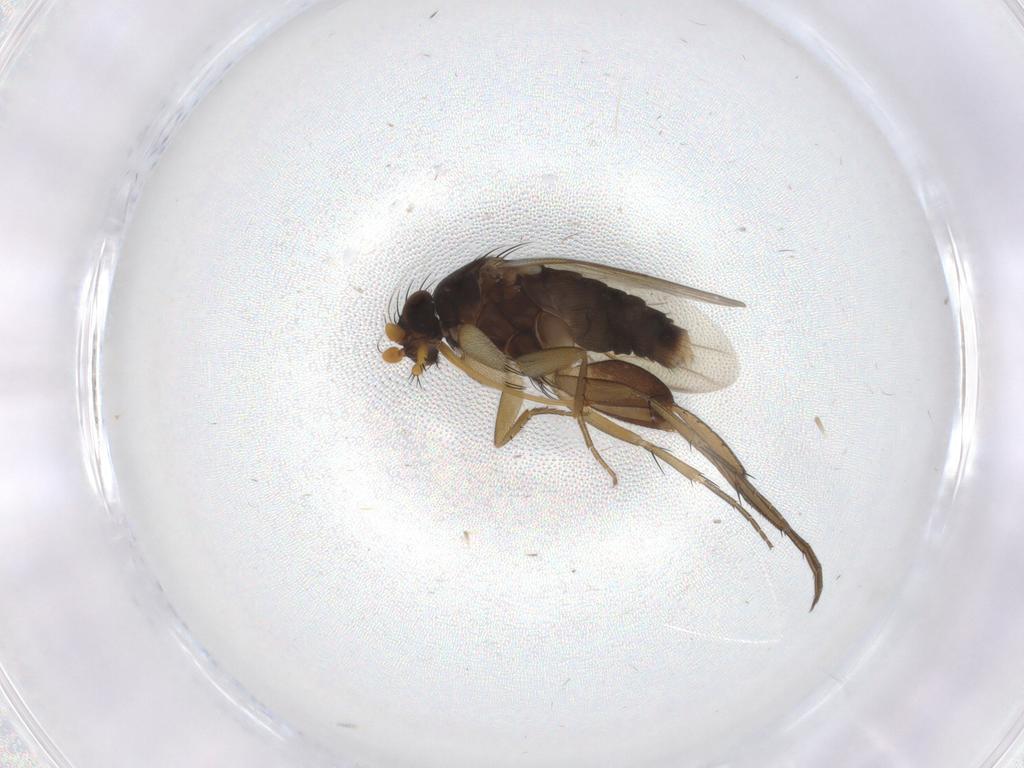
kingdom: Animalia
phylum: Arthropoda
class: Insecta
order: Diptera
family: Phoridae
